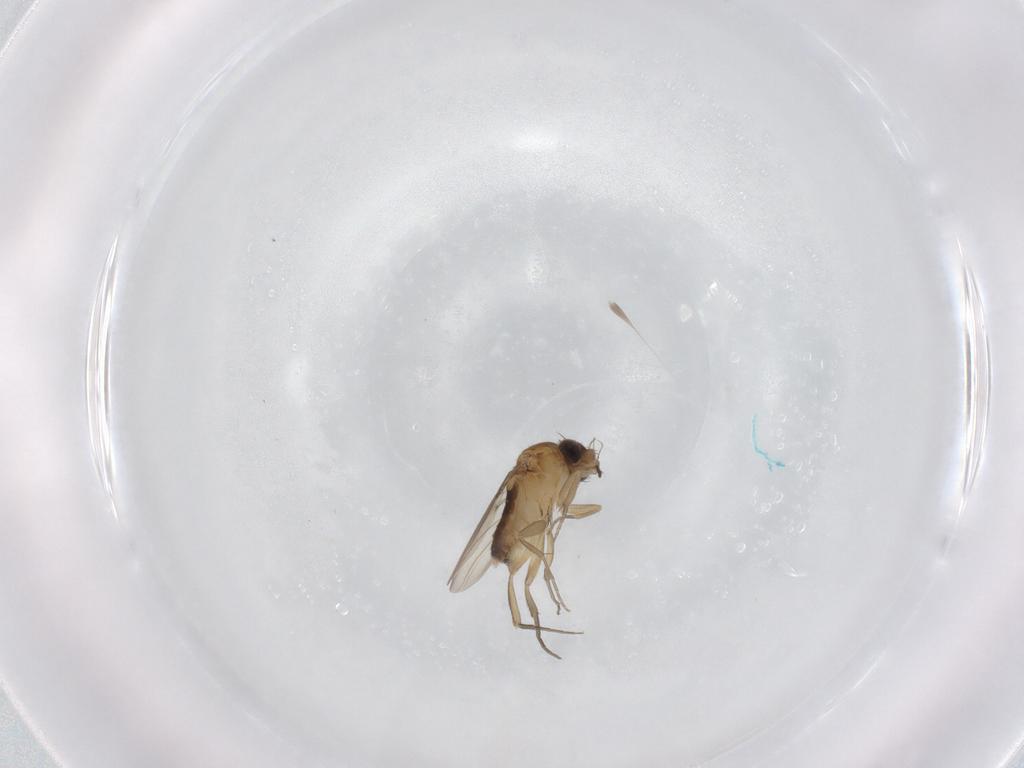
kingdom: Animalia
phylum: Arthropoda
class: Insecta
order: Diptera
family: Phoridae
